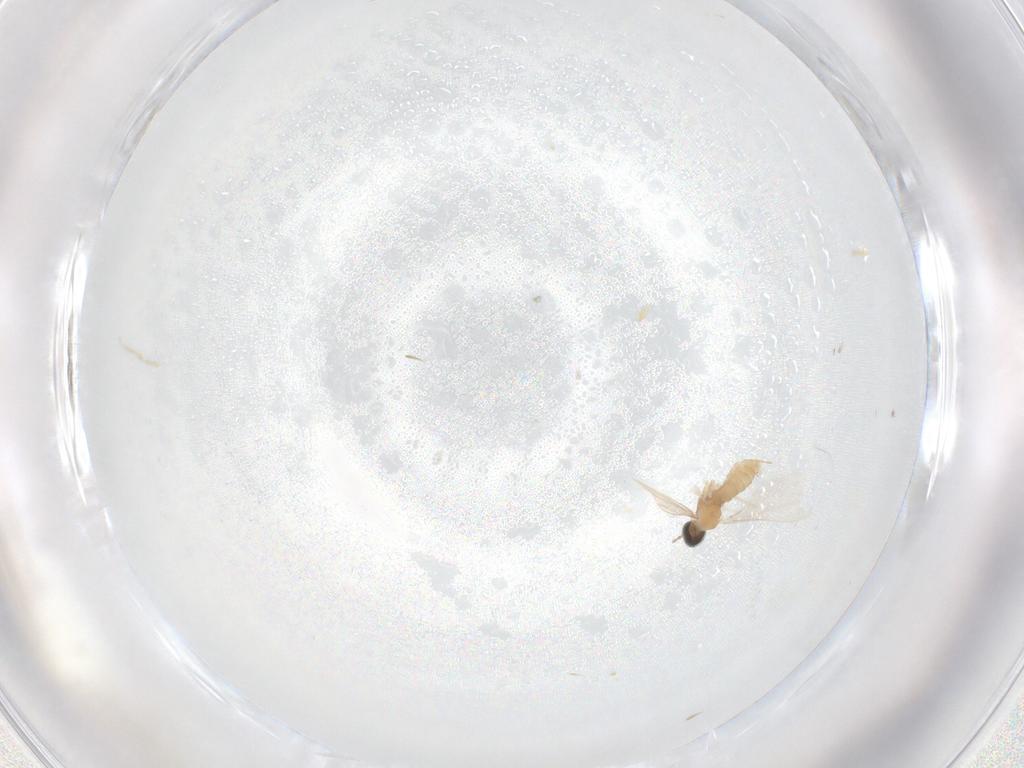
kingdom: Animalia
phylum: Arthropoda
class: Insecta
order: Diptera
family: Cecidomyiidae
